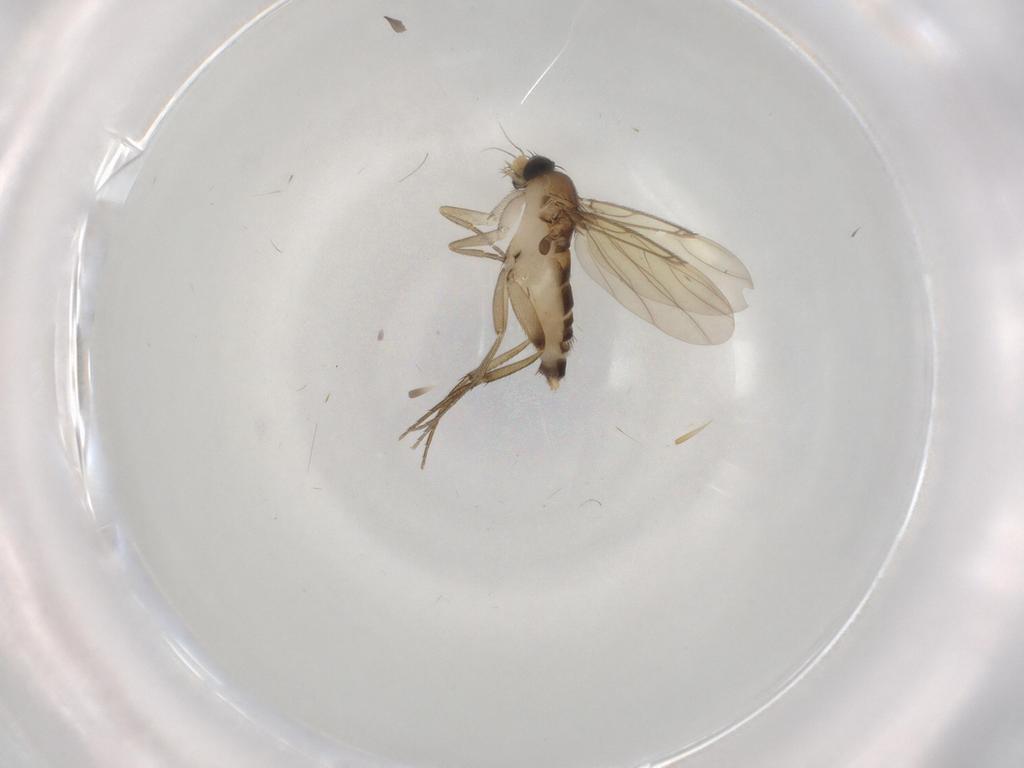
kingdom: Animalia
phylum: Arthropoda
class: Insecta
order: Diptera
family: Phoridae
